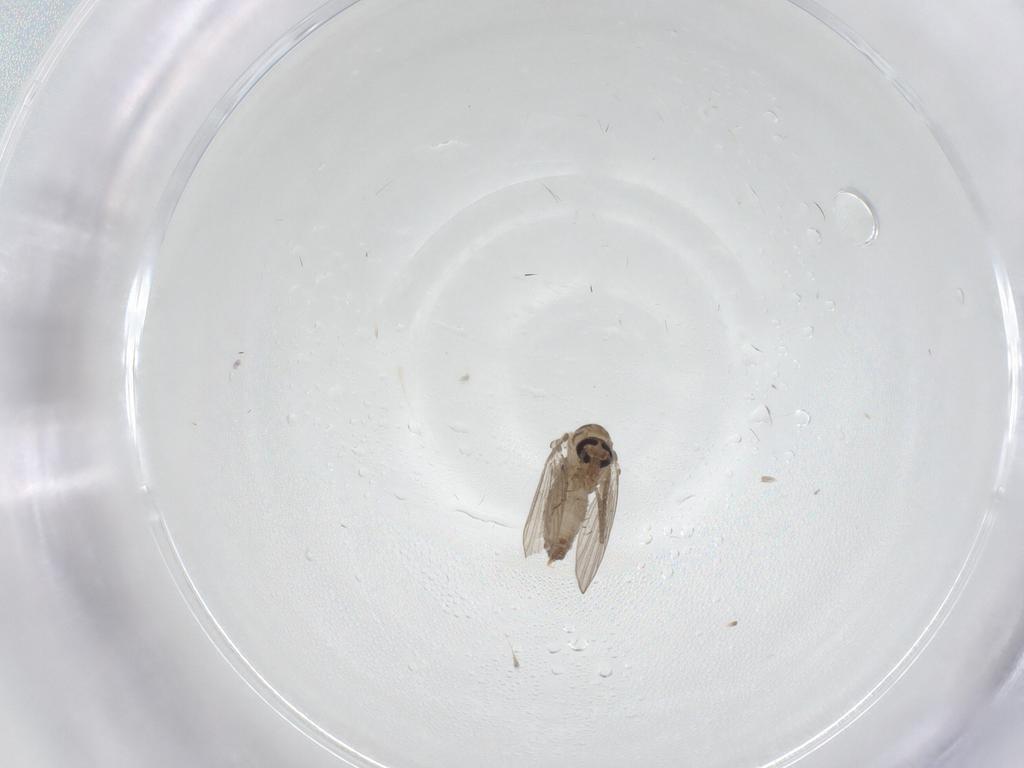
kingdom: Animalia
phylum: Arthropoda
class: Insecta
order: Diptera
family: Psychodidae
